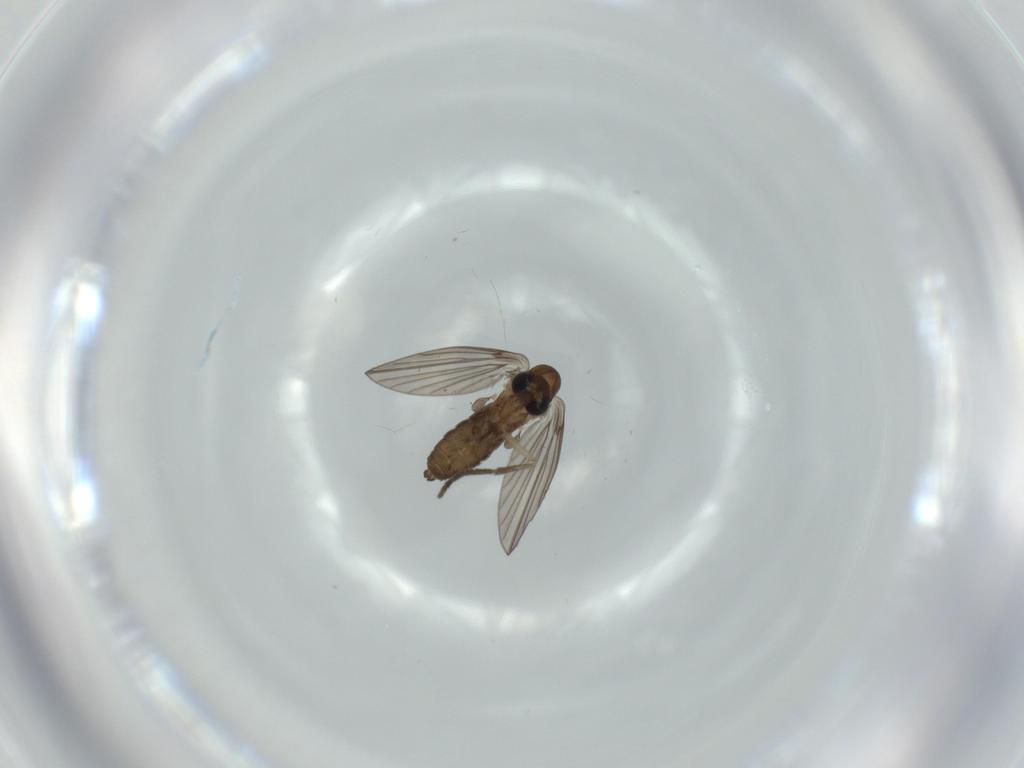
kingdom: Animalia
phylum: Arthropoda
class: Insecta
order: Diptera
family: Psychodidae
